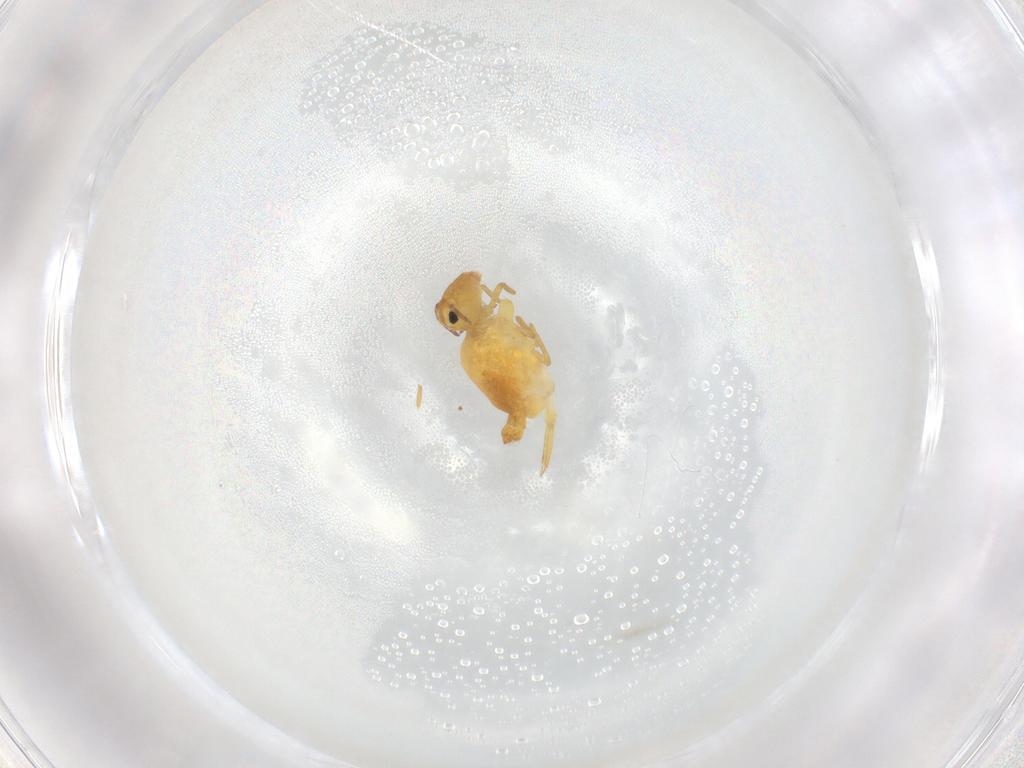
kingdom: Animalia
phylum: Arthropoda
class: Collembola
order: Symphypleona
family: Bourletiellidae
